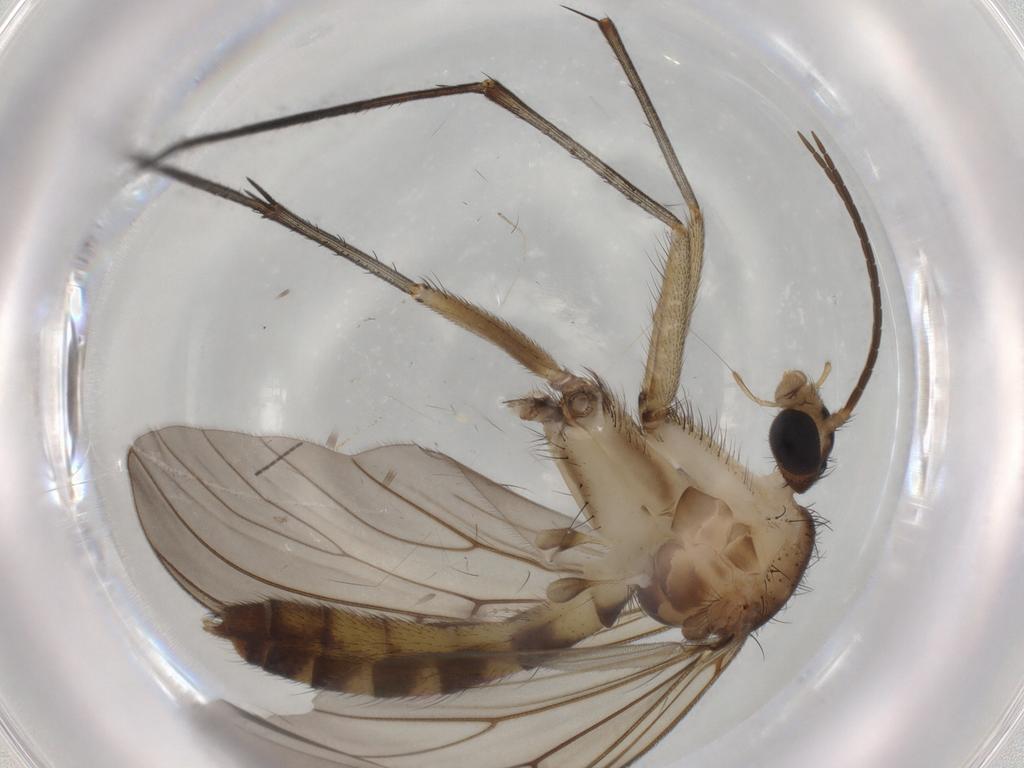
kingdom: Animalia
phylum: Arthropoda
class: Insecta
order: Diptera
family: Mycetophilidae
